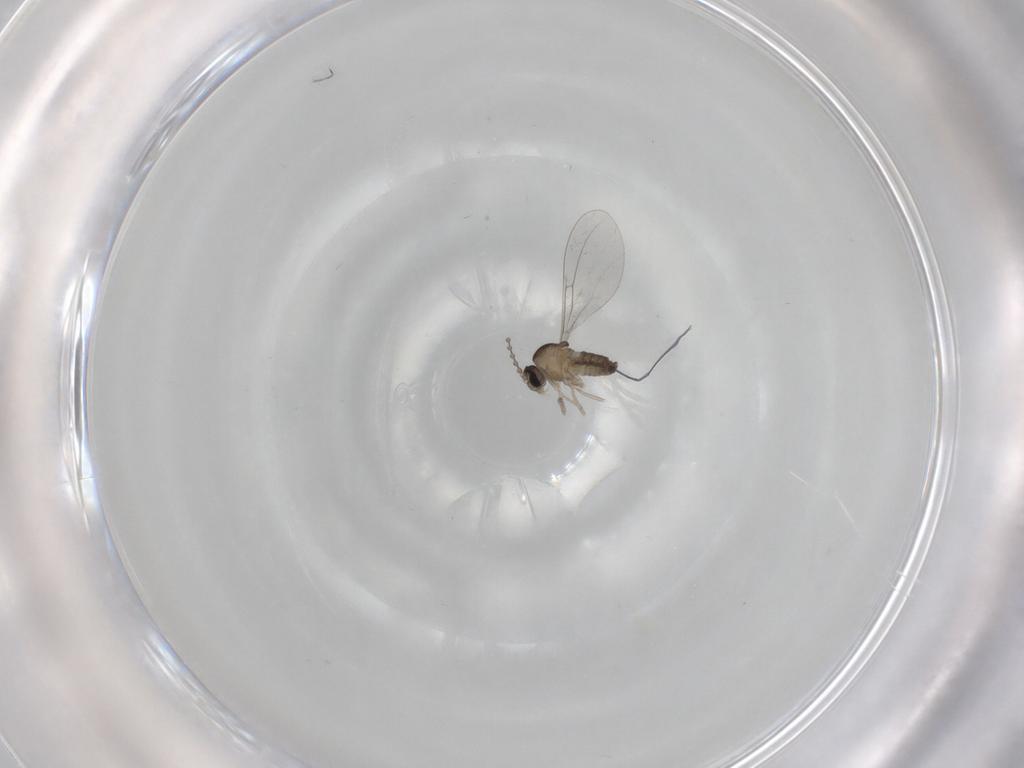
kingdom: Animalia
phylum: Arthropoda
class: Insecta
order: Diptera
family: Cecidomyiidae
